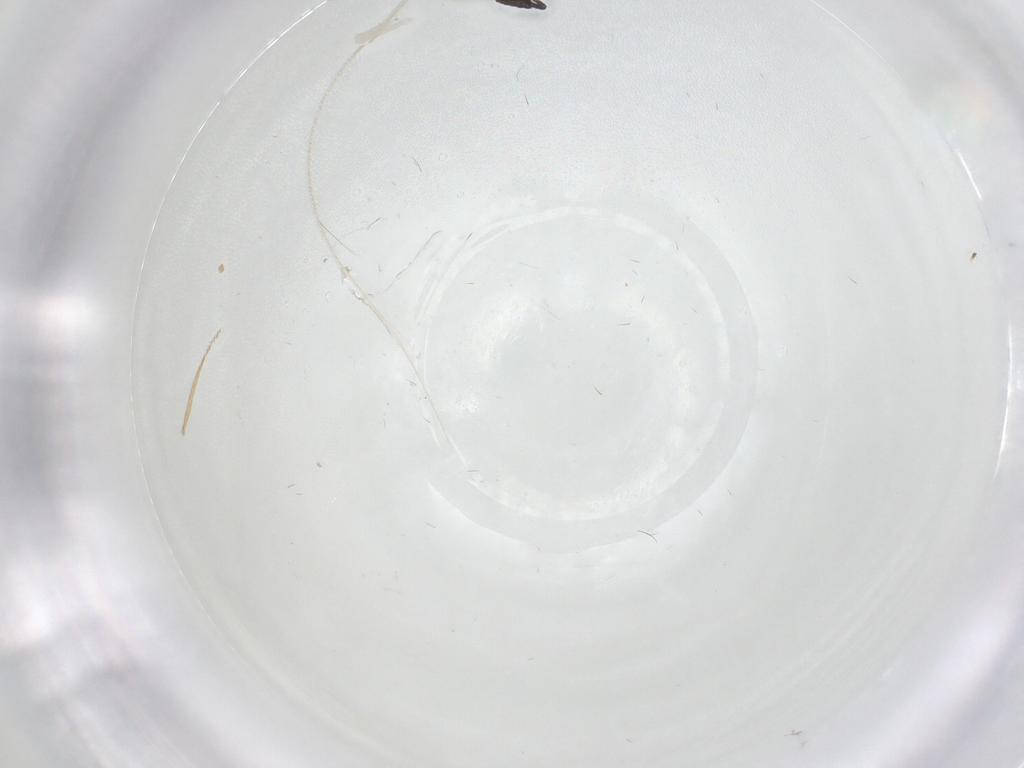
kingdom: Animalia
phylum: Arthropoda
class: Insecta
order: Diptera
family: Phoridae
